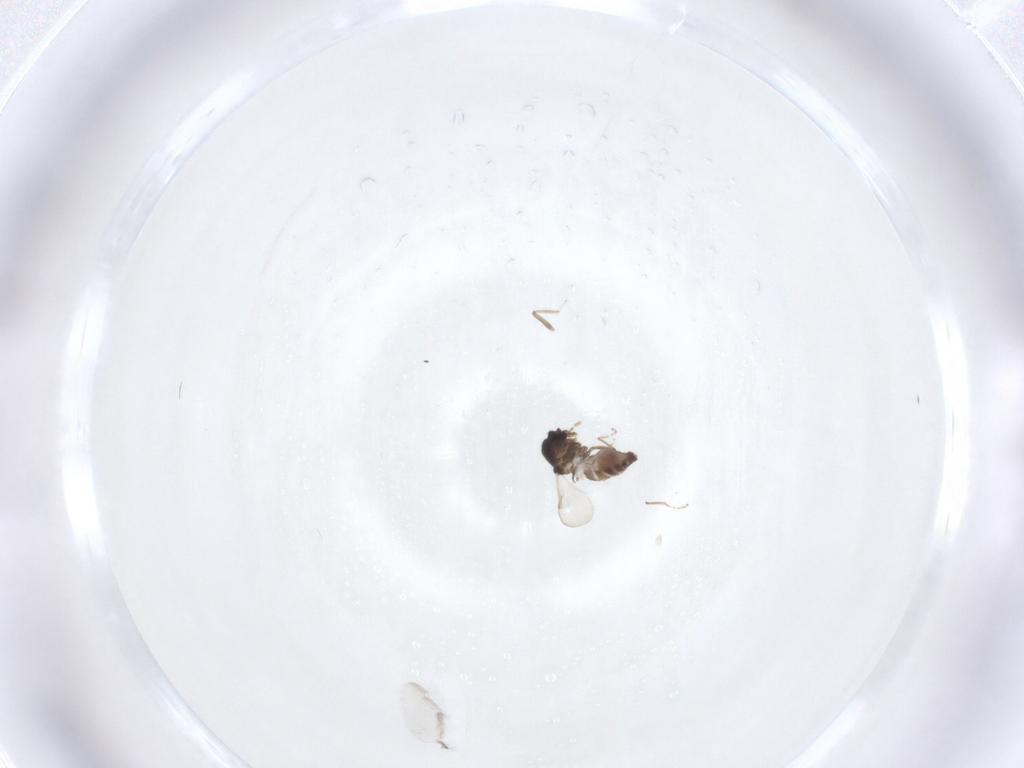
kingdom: Animalia
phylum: Arthropoda
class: Insecta
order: Diptera
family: Ceratopogonidae
